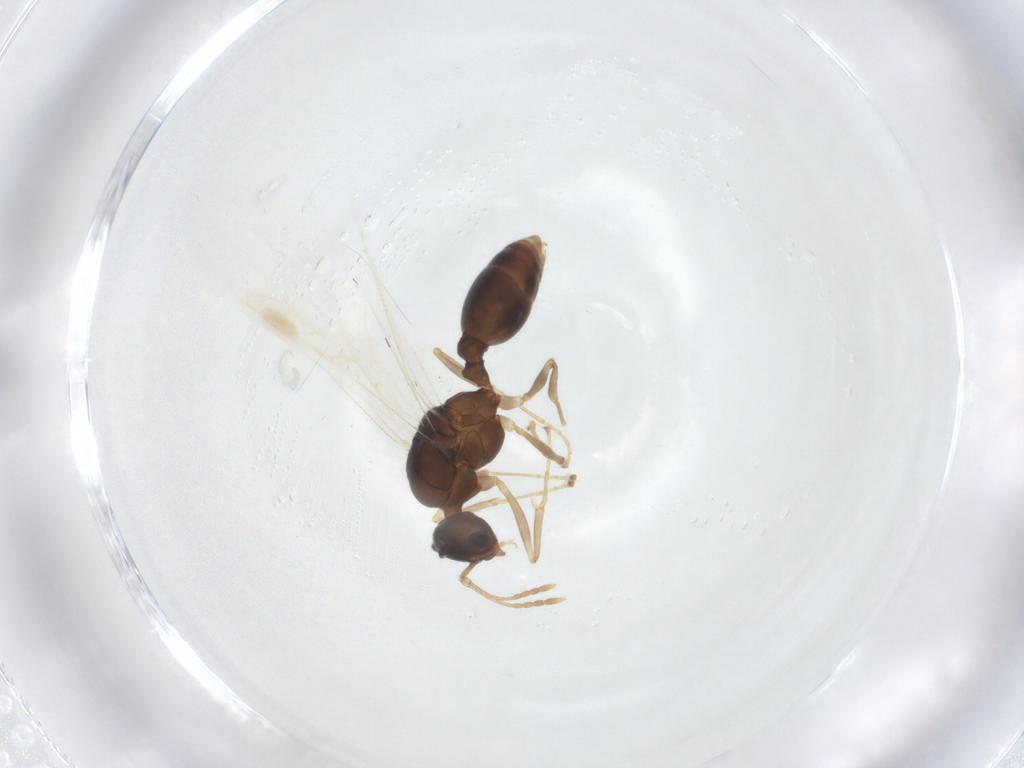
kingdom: Animalia
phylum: Arthropoda
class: Insecta
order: Hymenoptera
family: Formicidae
